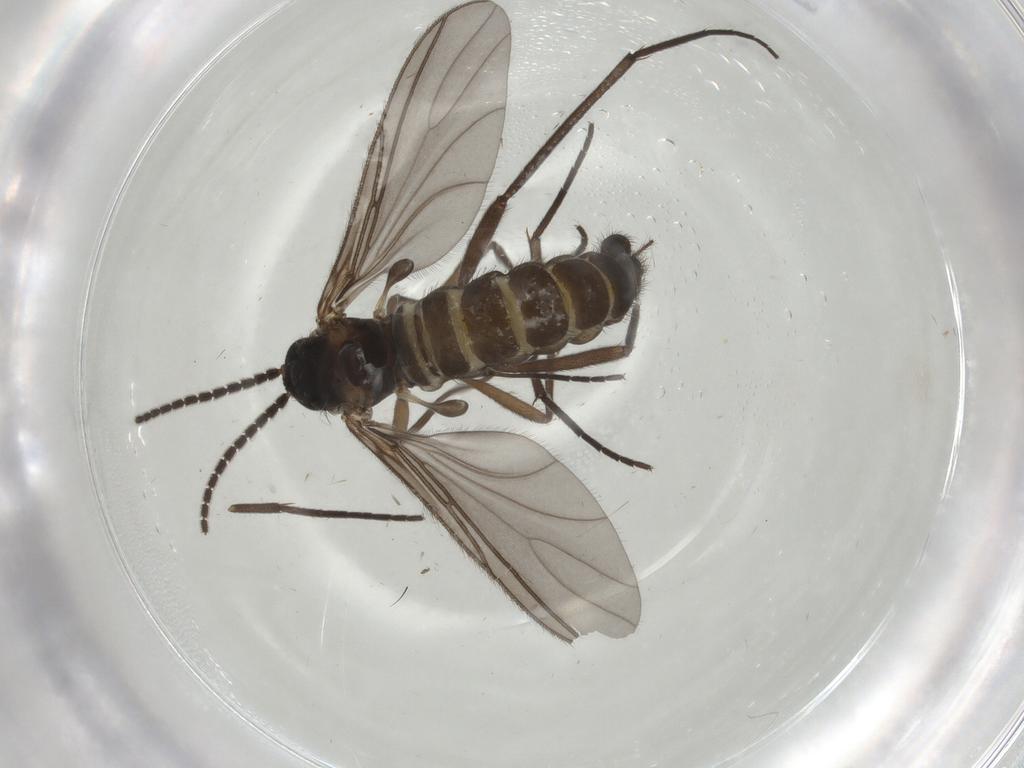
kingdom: Animalia
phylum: Arthropoda
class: Insecta
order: Diptera
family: Sciaridae
